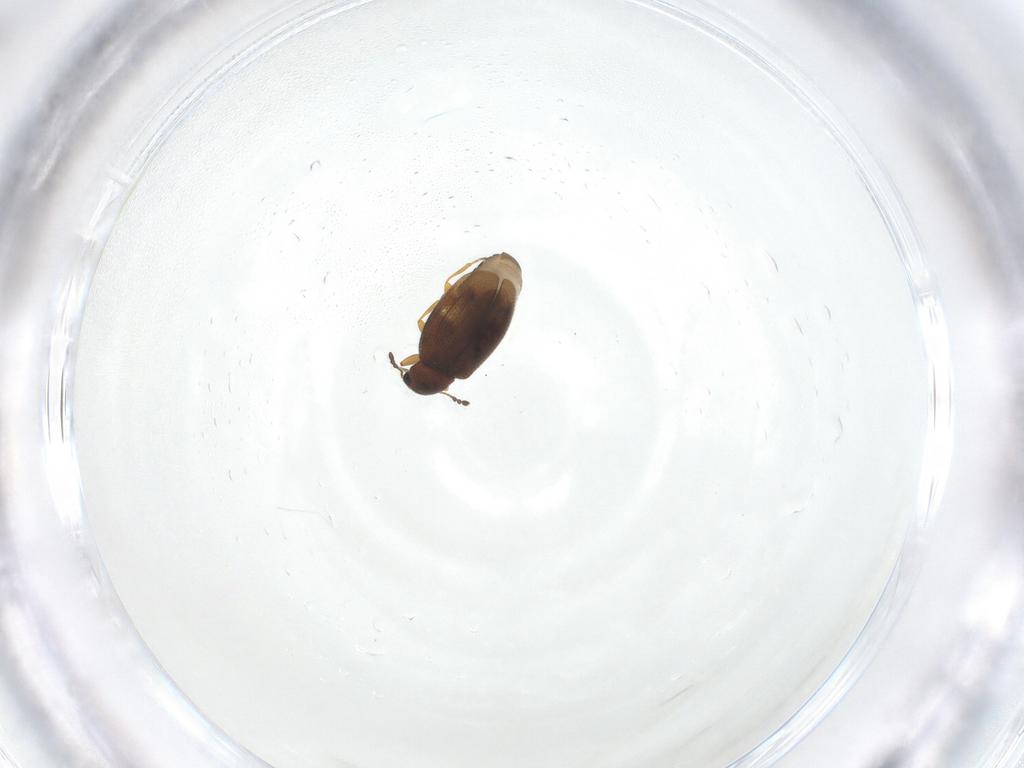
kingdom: Animalia
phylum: Arthropoda
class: Insecta
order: Coleoptera
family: Latridiidae
